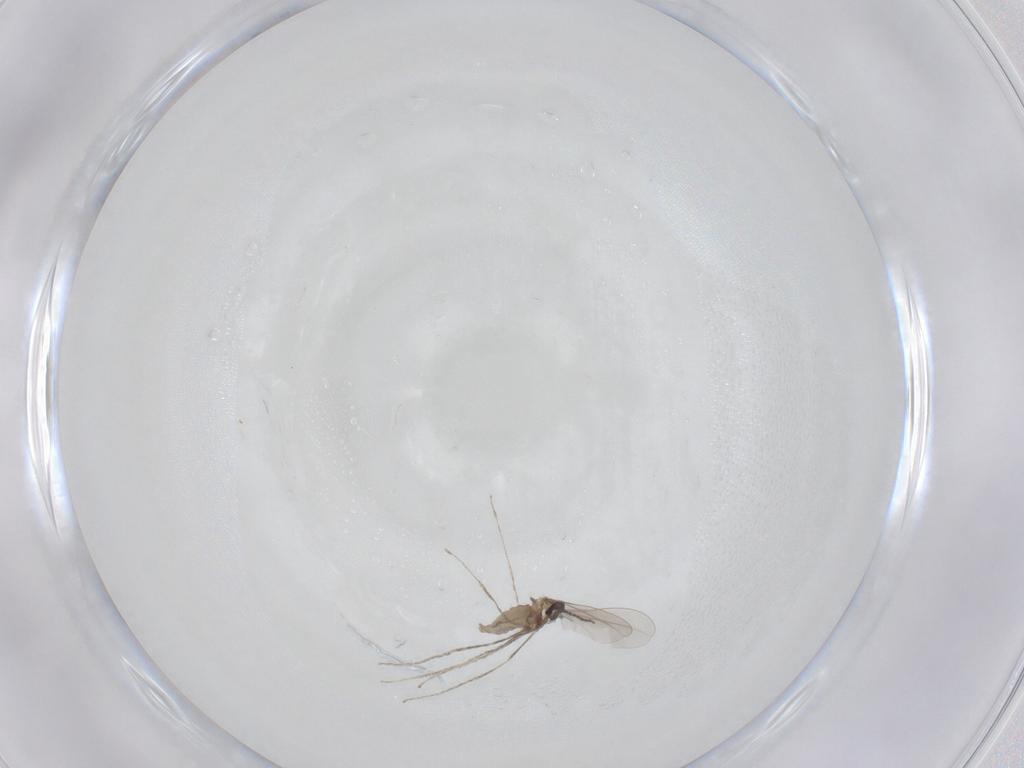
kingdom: Animalia
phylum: Arthropoda
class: Insecta
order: Diptera
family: Cecidomyiidae
